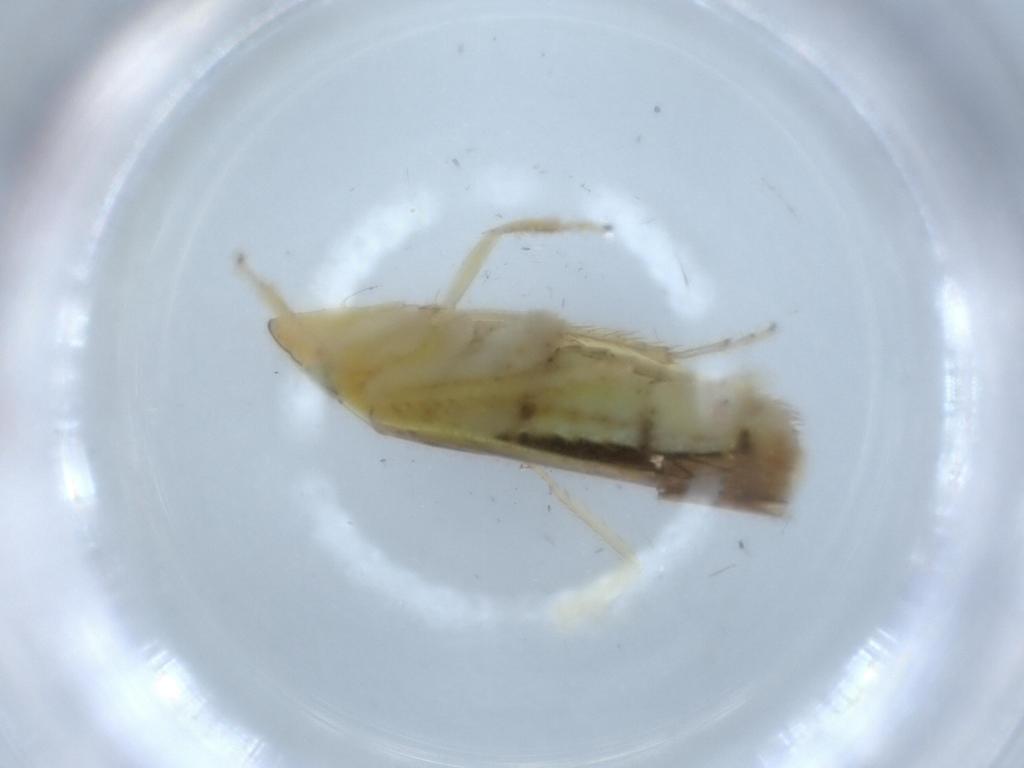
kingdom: Animalia
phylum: Arthropoda
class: Insecta
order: Hemiptera
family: Cicadellidae
